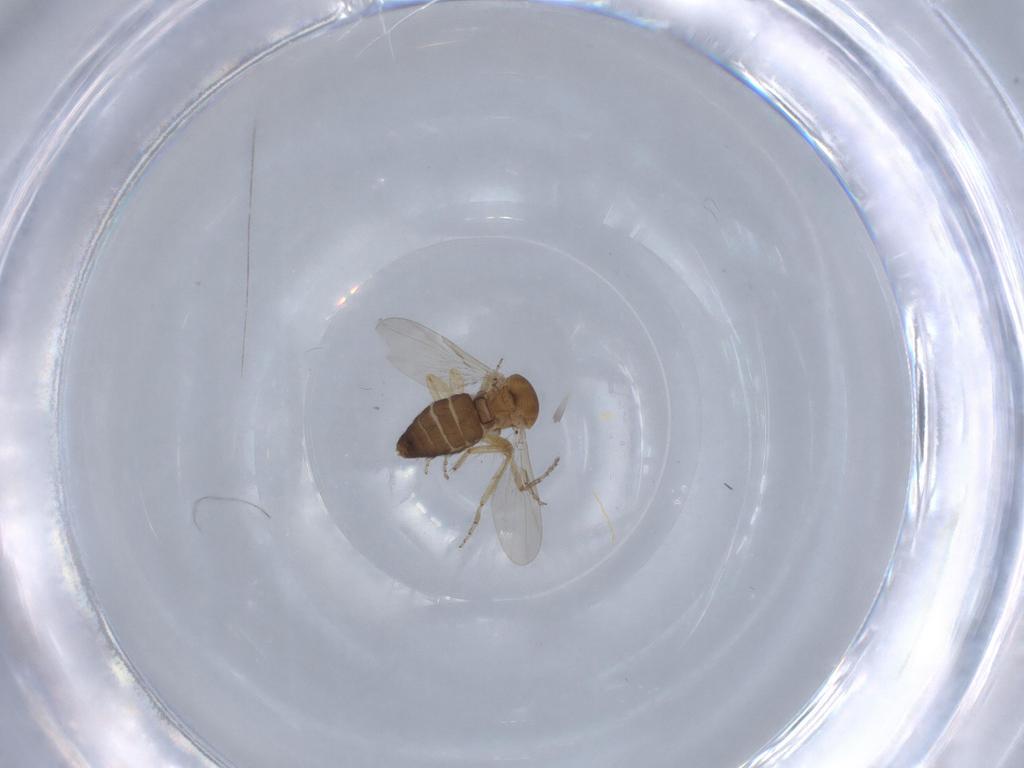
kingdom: Animalia
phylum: Arthropoda
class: Insecta
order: Diptera
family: Ceratopogonidae
